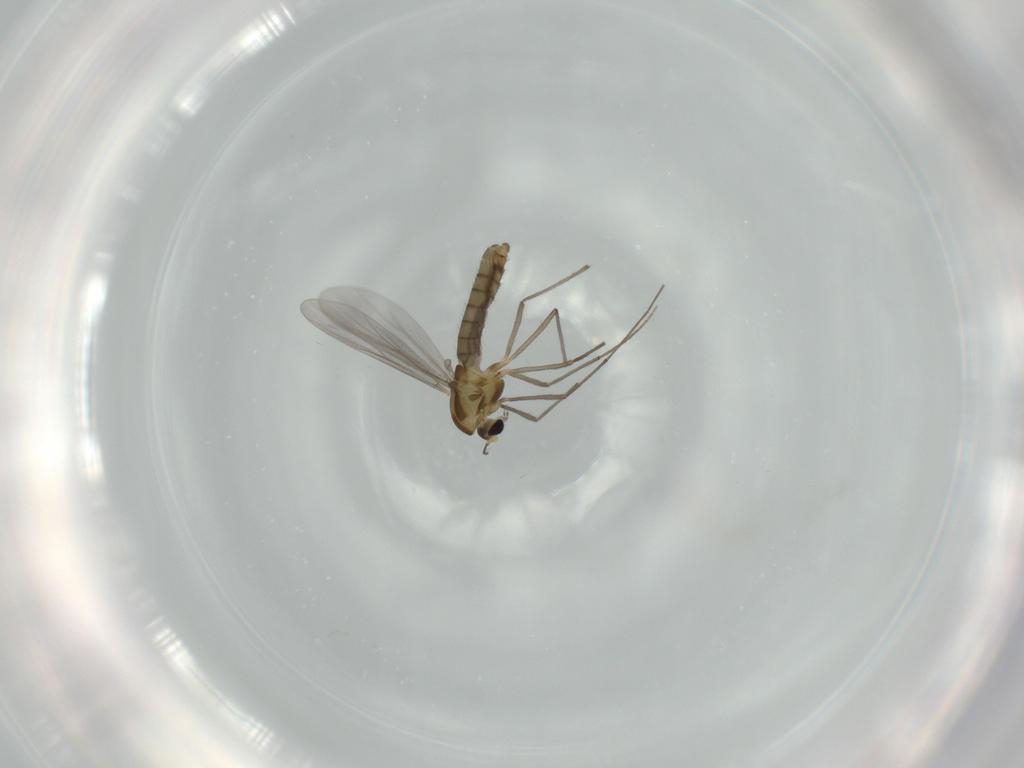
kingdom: Animalia
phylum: Arthropoda
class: Insecta
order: Diptera
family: Chironomidae
